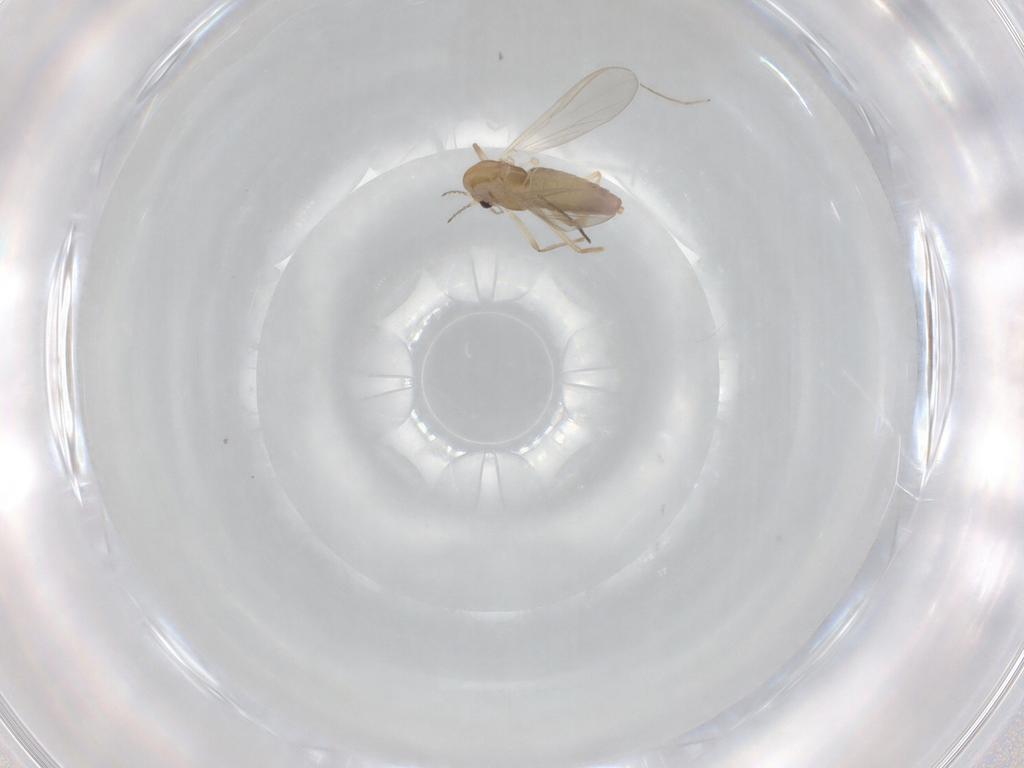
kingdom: Animalia
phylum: Arthropoda
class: Insecta
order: Diptera
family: Chironomidae
